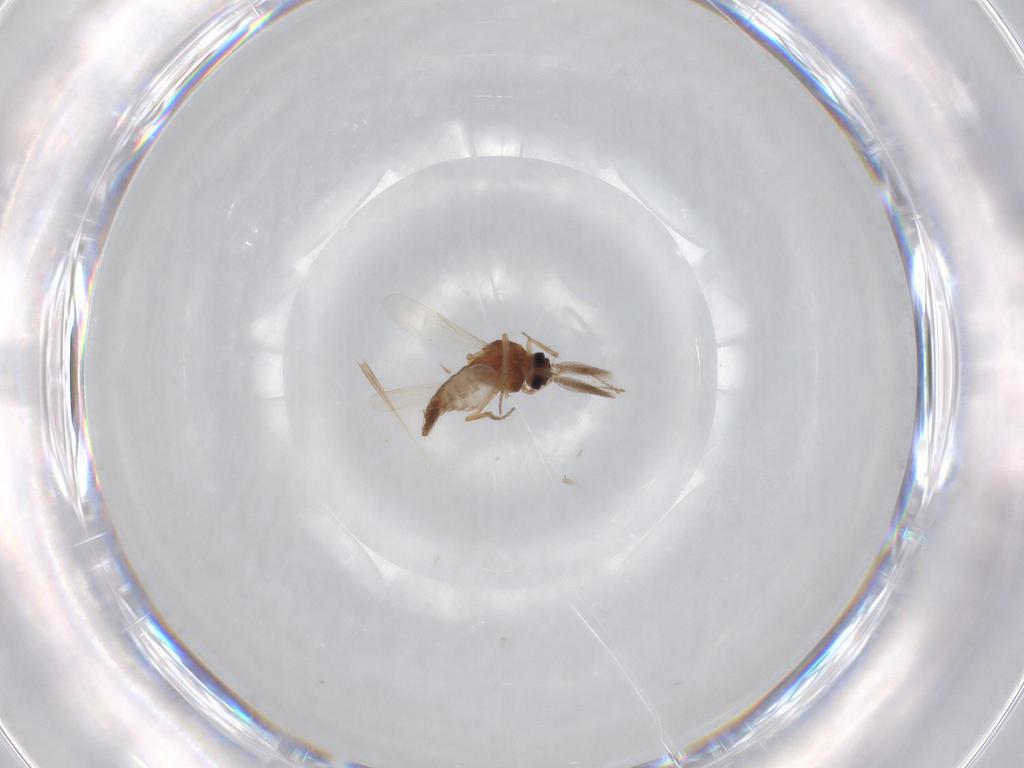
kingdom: Animalia
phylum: Arthropoda
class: Insecta
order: Diptera
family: Ceratopogonidae
